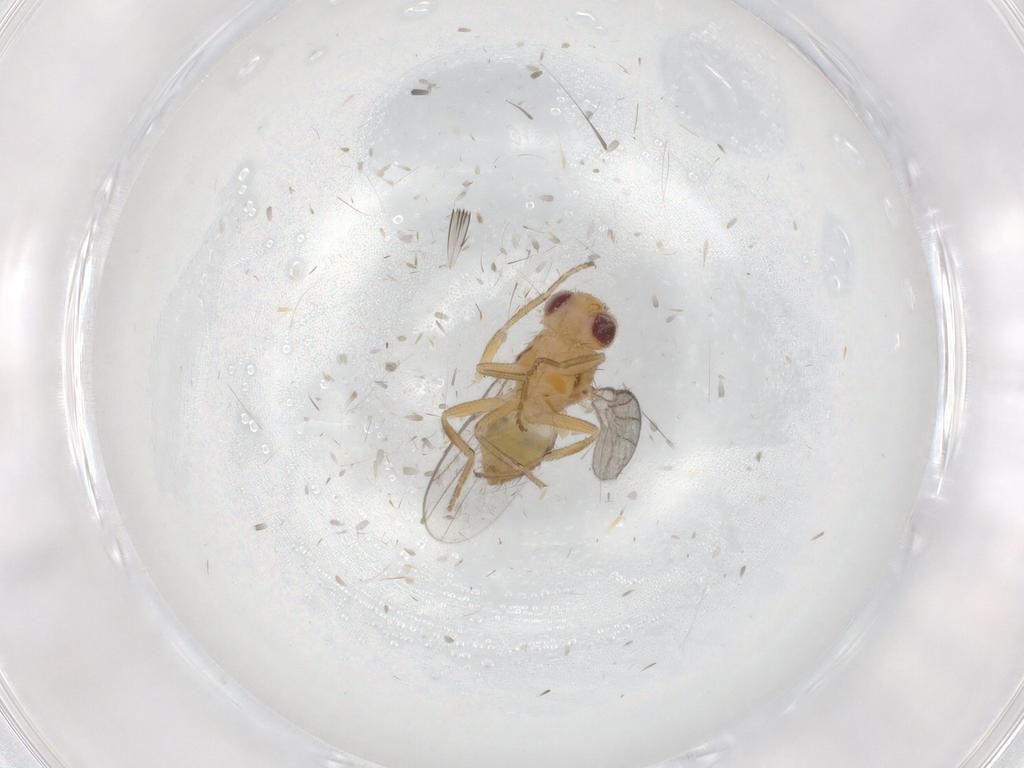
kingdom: Animalia
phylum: Arthropoda
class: Insecta
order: Diptera
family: Chloropidae
